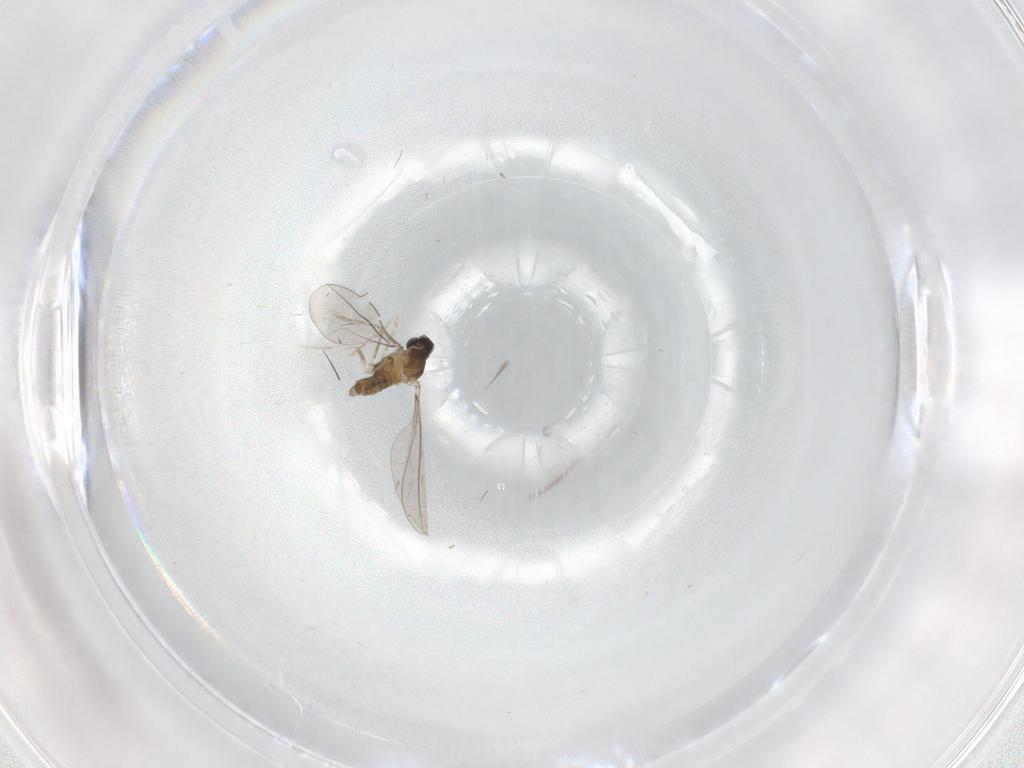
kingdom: Animalia
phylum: Arthropoda
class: Insecta
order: Diptera
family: Cecidomyiidae
